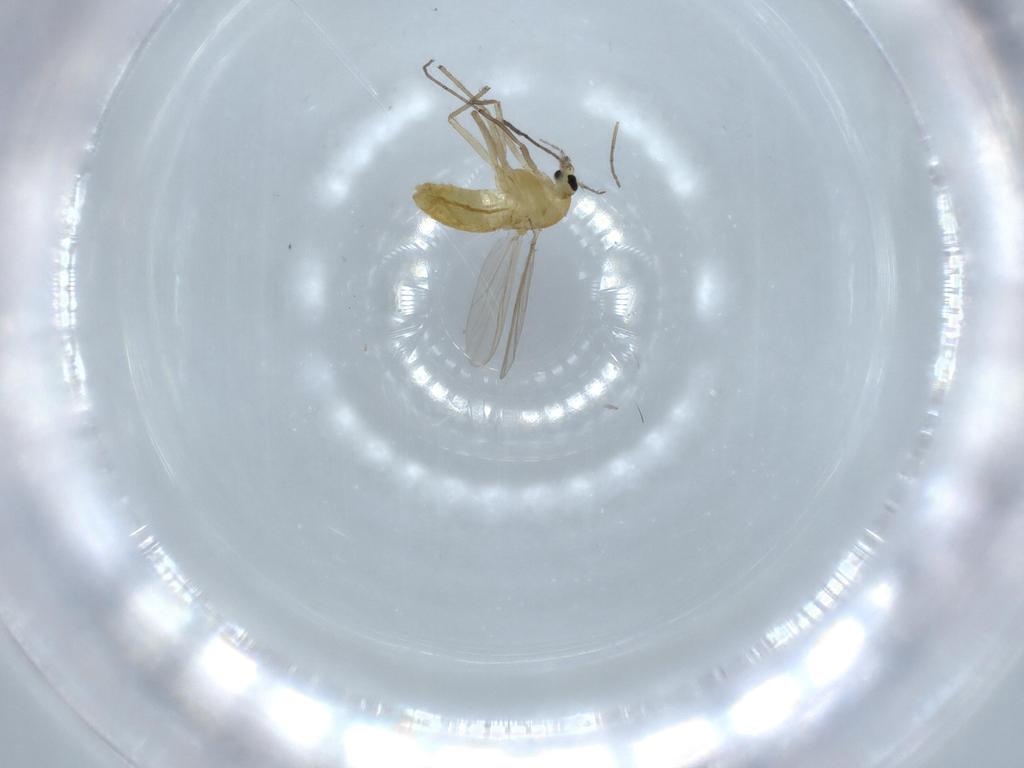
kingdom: Animalia
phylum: Arthropoda
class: Insecta
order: Diptera
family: Chironomidae
